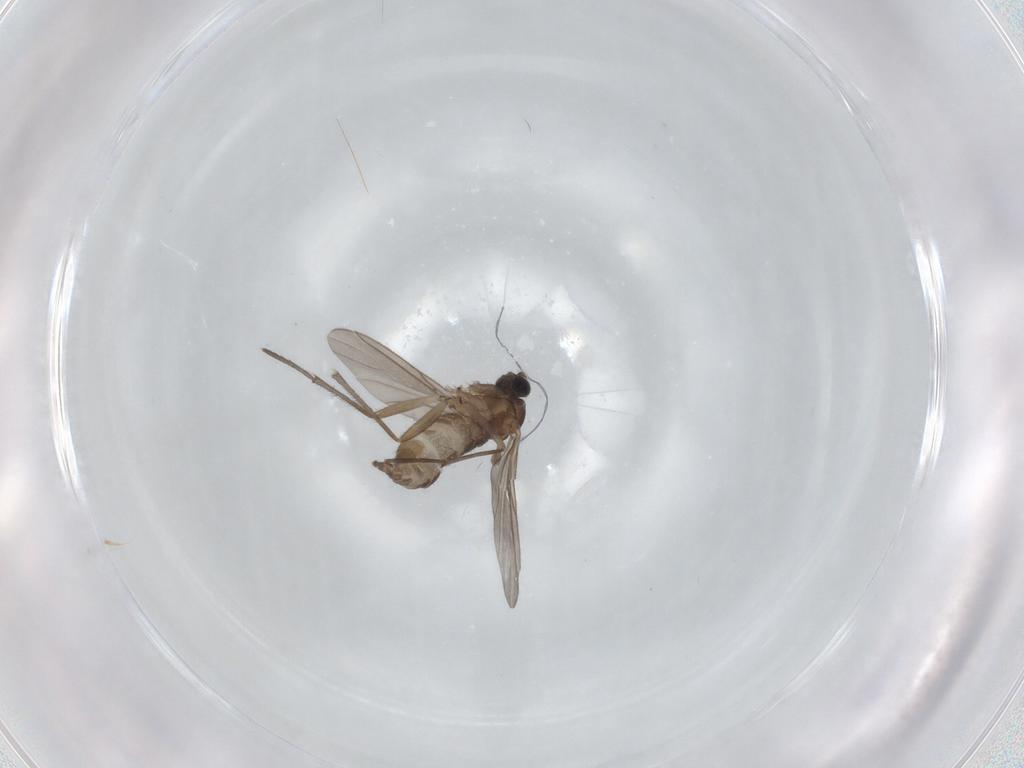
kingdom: Animalia
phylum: Arthropoda
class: Insecta
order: Diptera
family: Sciaridae
